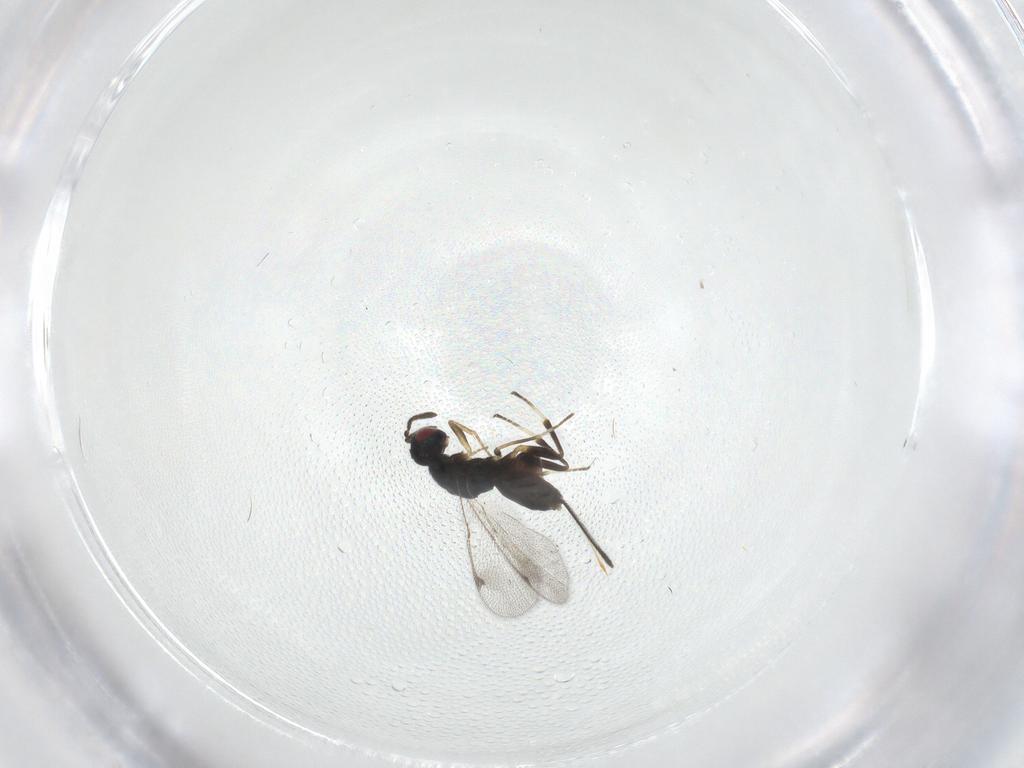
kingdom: Animalia
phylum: Arthropoda
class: Insecta
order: Hymenoptera
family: Torymidae
